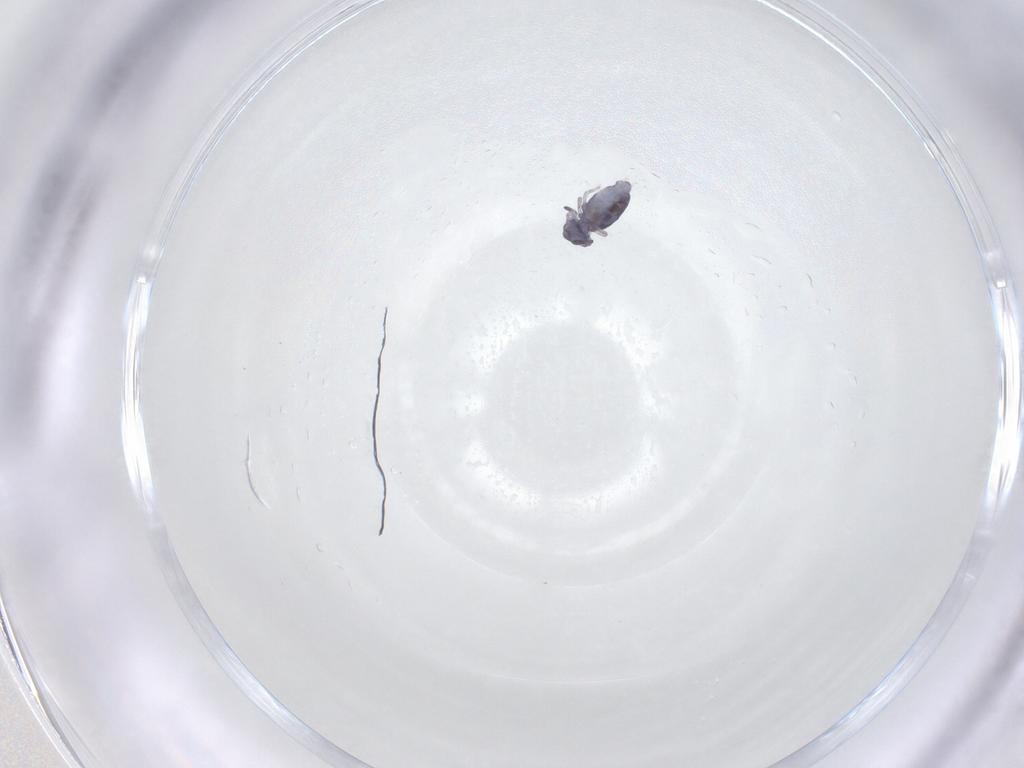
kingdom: Animalia
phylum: Arthropoda
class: Collembola
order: Symphypleona
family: Katiannidae
